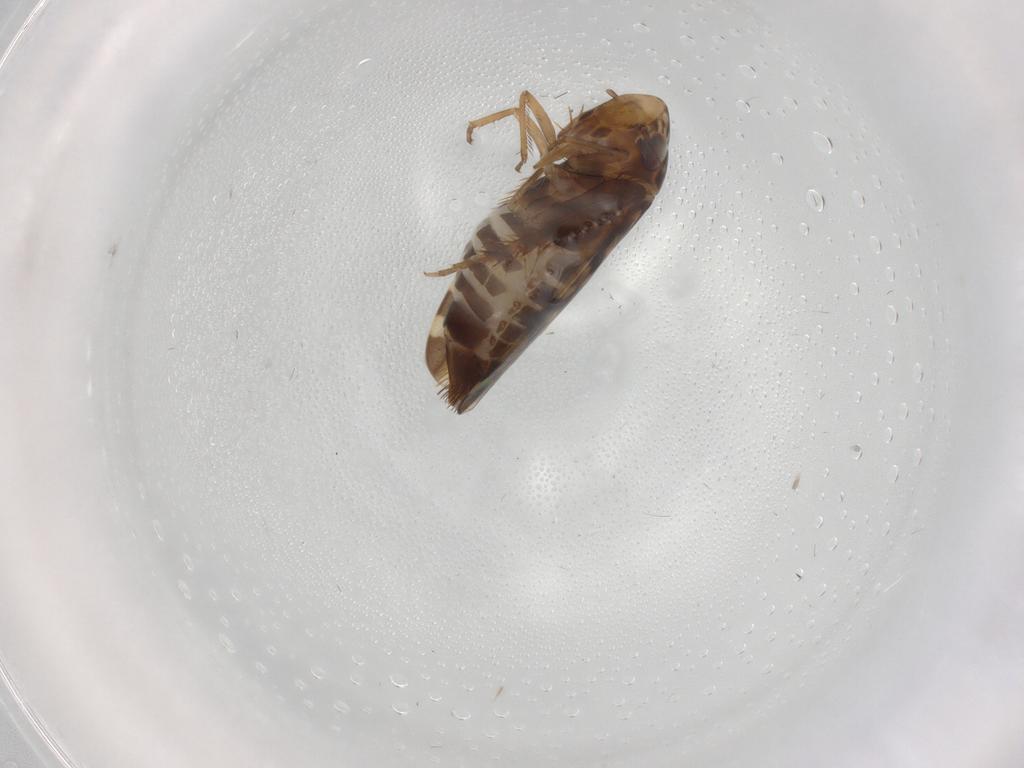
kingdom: Animalia
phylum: Arthropoda
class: Insecta
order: Hemiptera
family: Cicadellidae
